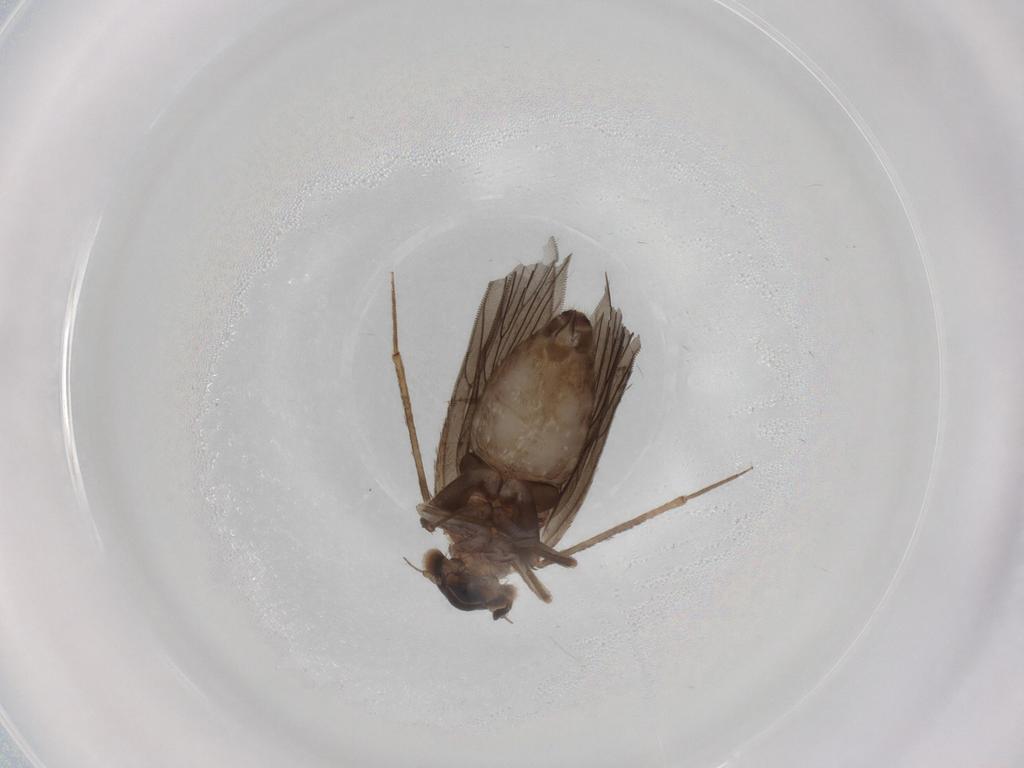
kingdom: Animalia
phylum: Arthropoda
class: Insecta
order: Psocodea
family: Lepidopsocidae
